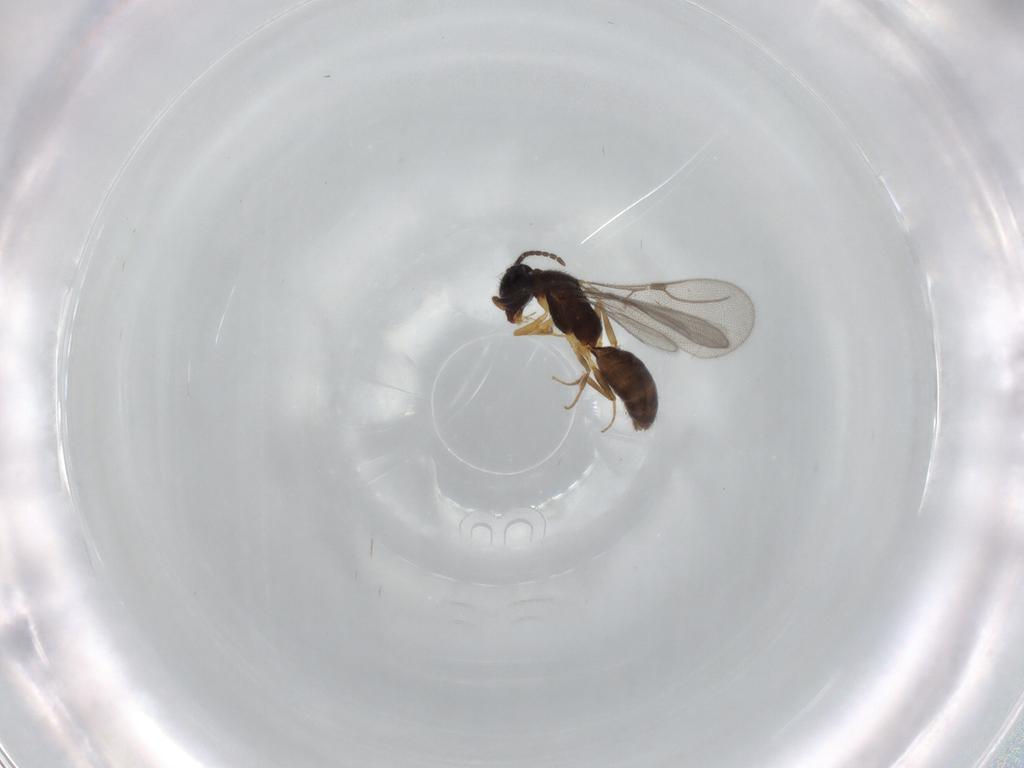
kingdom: Animalia
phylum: Arthropoda
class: Insecta
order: Hymenoptera
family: Bethylidae
